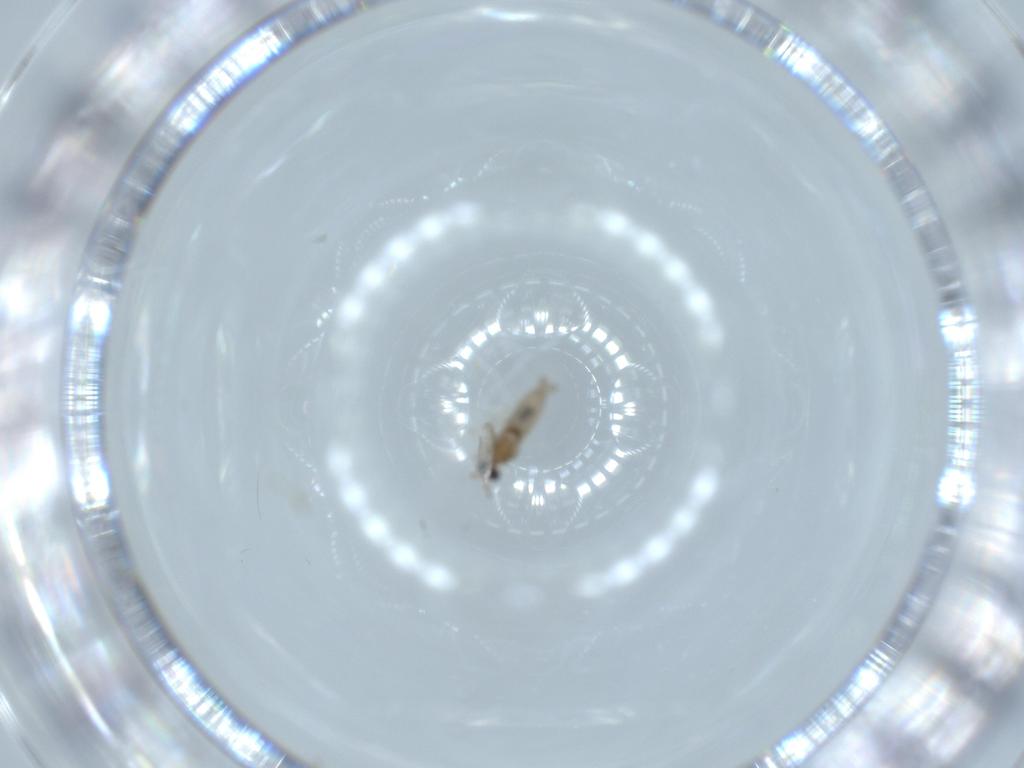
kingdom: Animalia
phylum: Arthropoda
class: Insecta
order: Diptera
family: Cecidomyiidae
